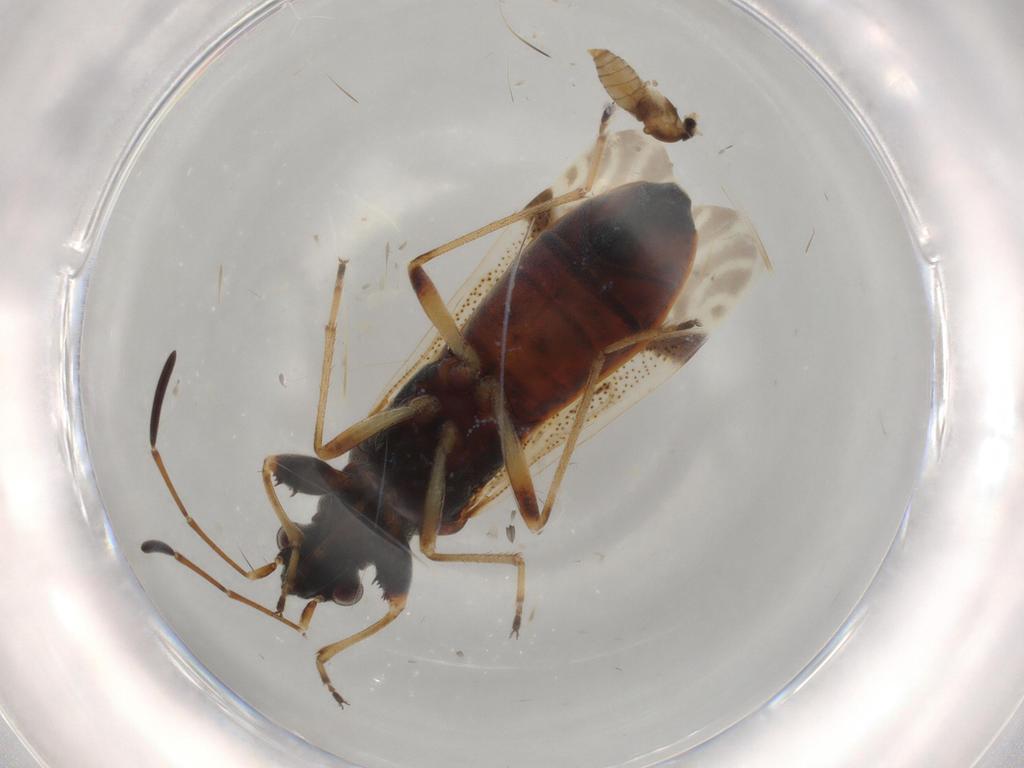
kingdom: Animalia
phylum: Arthropoda
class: Insecta
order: Diptera
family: Cecidomyiidae
